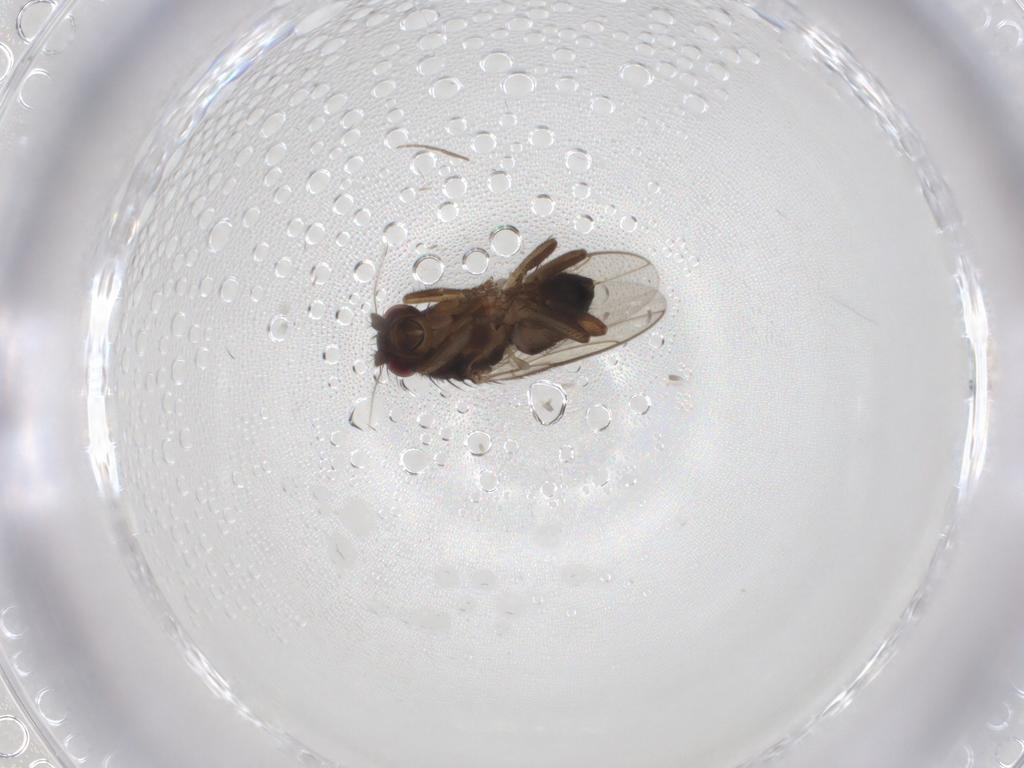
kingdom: Animalia
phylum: Arthropoda
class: Insecta
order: Diptera
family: Sphaeroceridae
